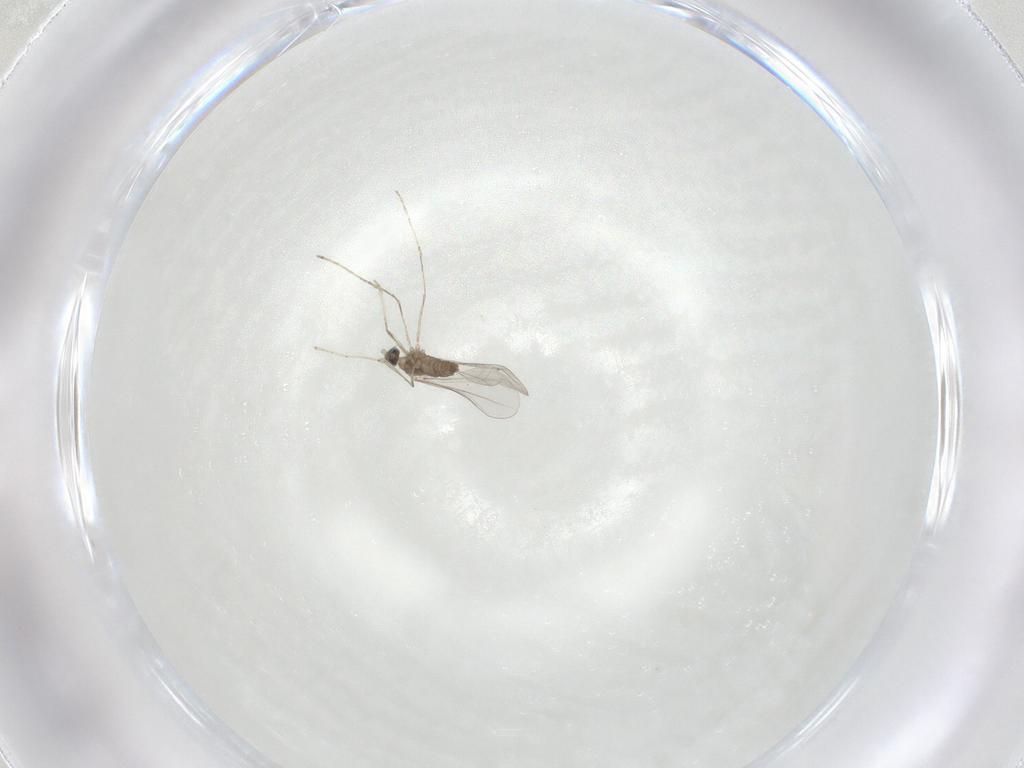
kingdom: Animalia
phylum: Arthropoda
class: Insecta
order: Diptera
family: Cecidomyiidae
